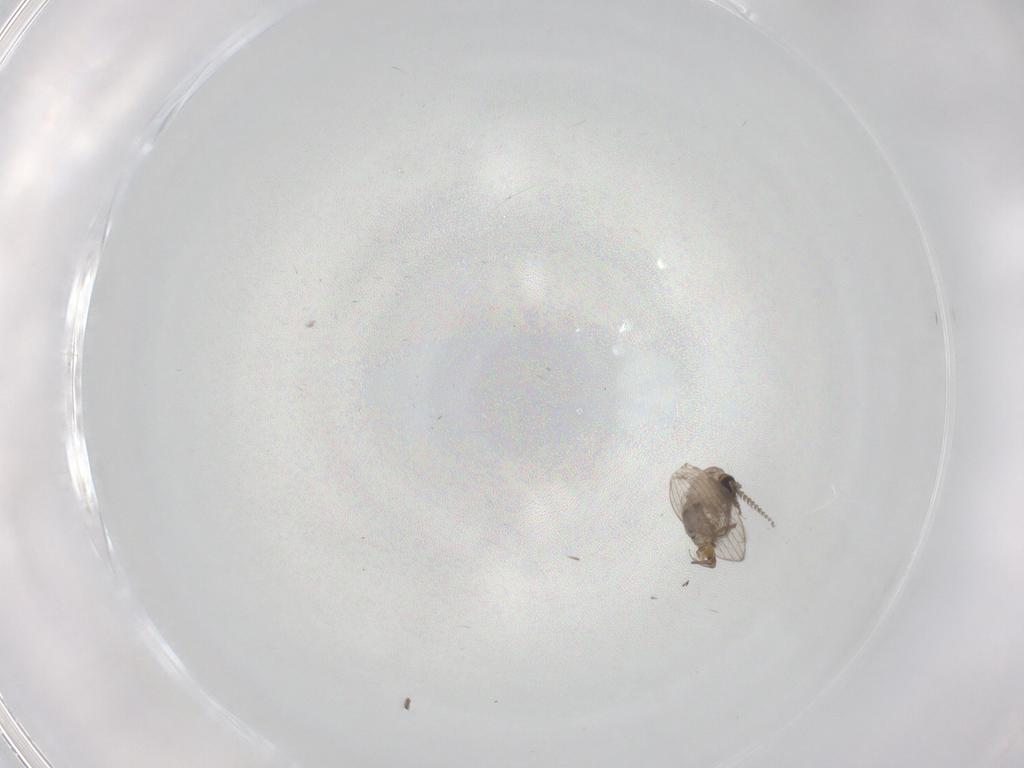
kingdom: Animalia
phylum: Arthropoda
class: Insecta
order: Diptera
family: Psychodidae
